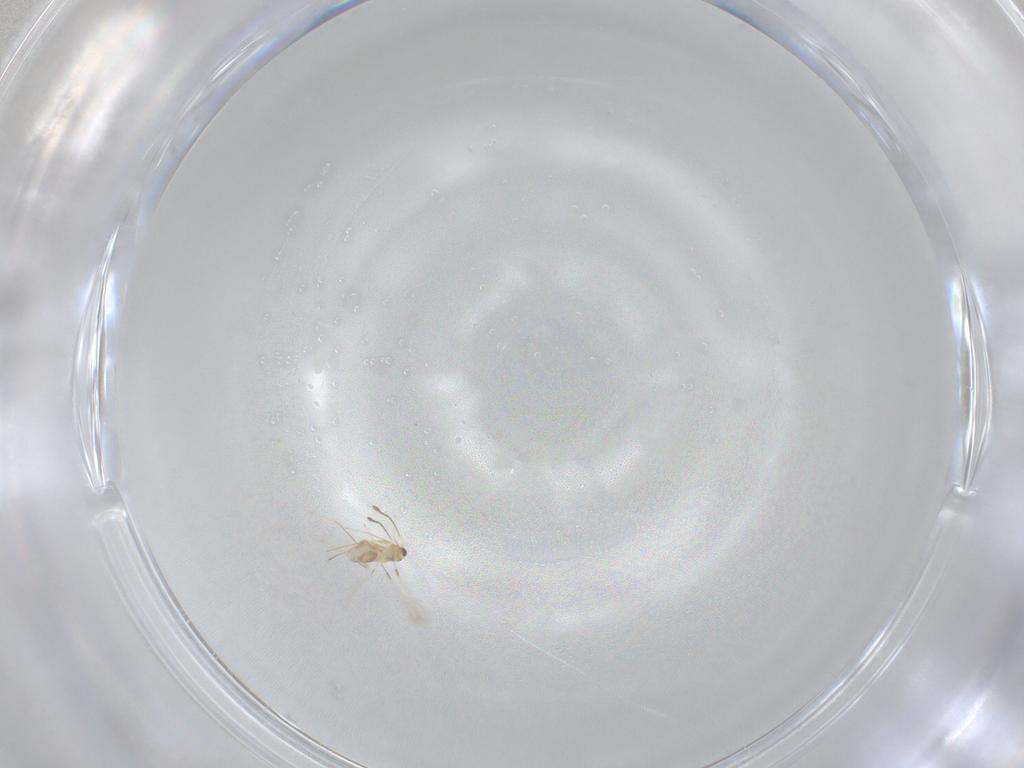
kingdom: Animalia
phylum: Arthropoda
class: Insecta
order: Hymenoptera
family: Mymaridae
